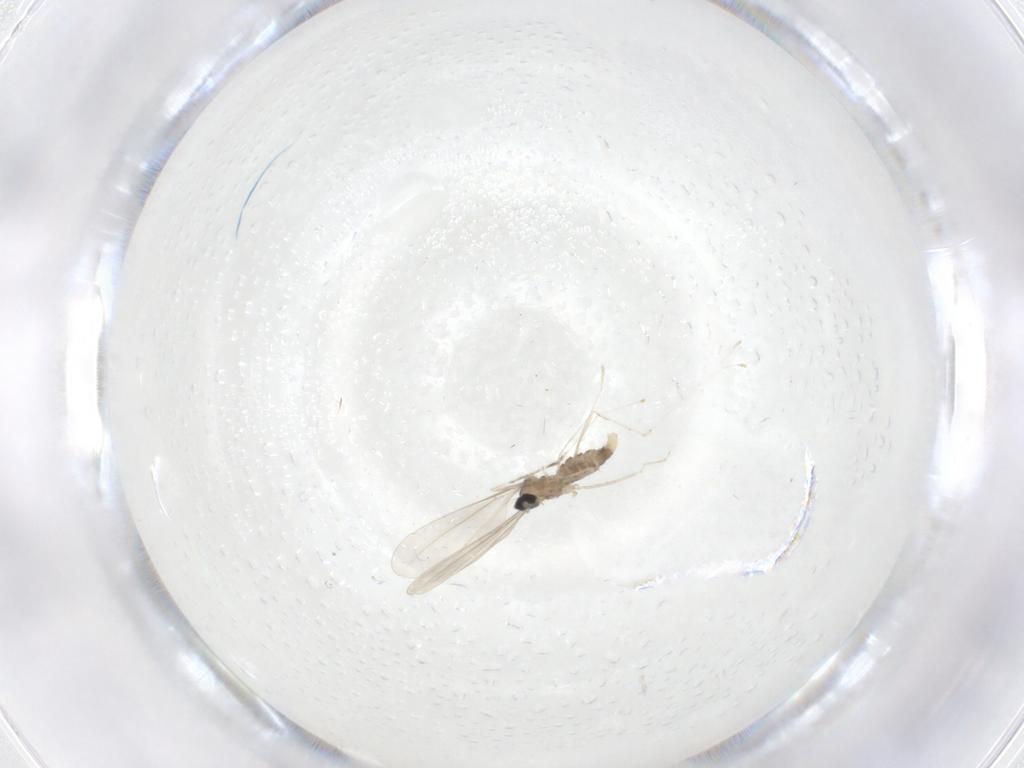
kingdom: Animalia
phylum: Arthropoda
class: Insecta
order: Diptera
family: Cecidomyiidae
